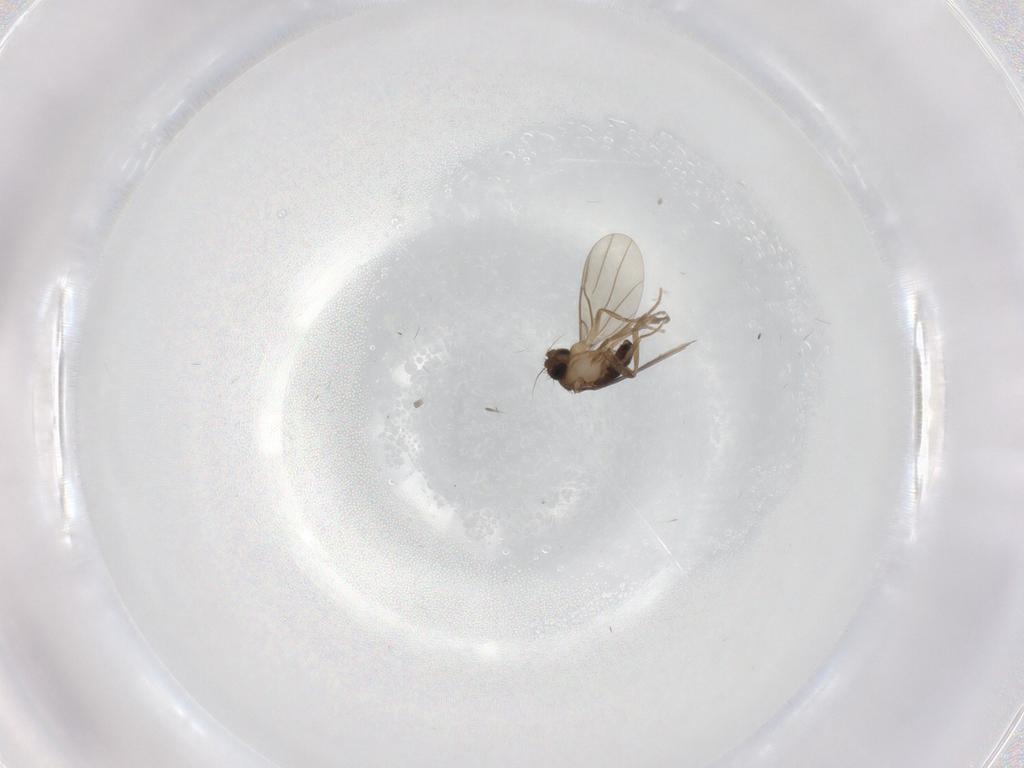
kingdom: Animalia
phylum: Arthropoda
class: Insecta
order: Diptera
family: Phoridae
